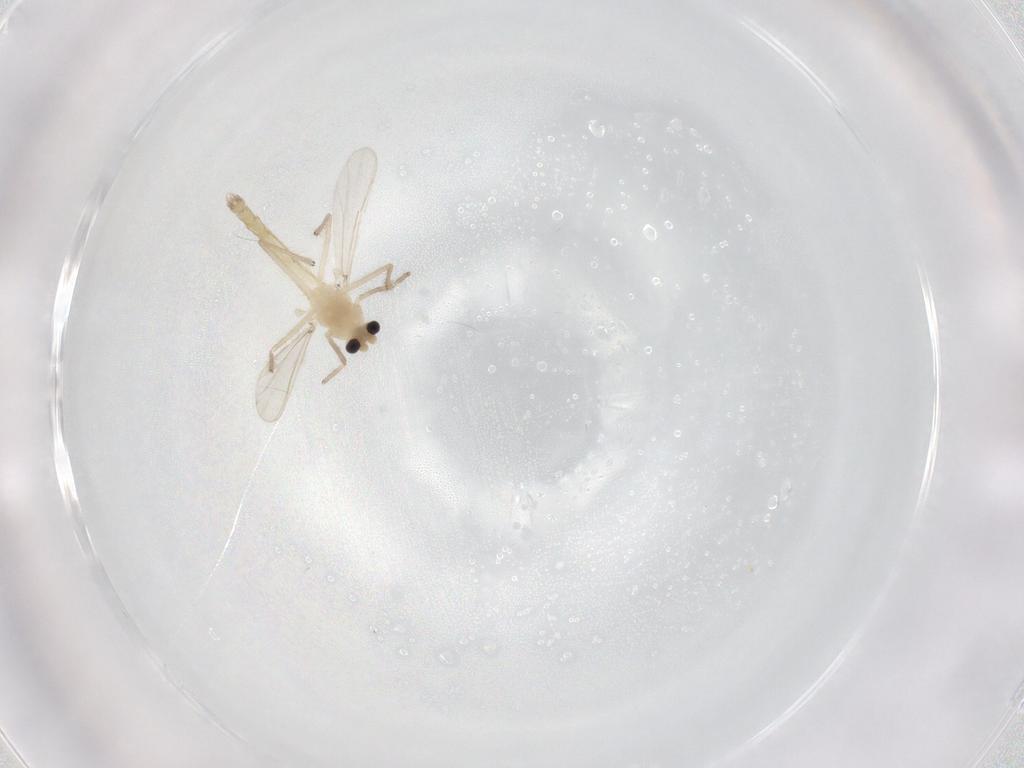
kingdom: Animalia
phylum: Arthropoda
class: Insecta
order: Diptera
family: Chironomidae
